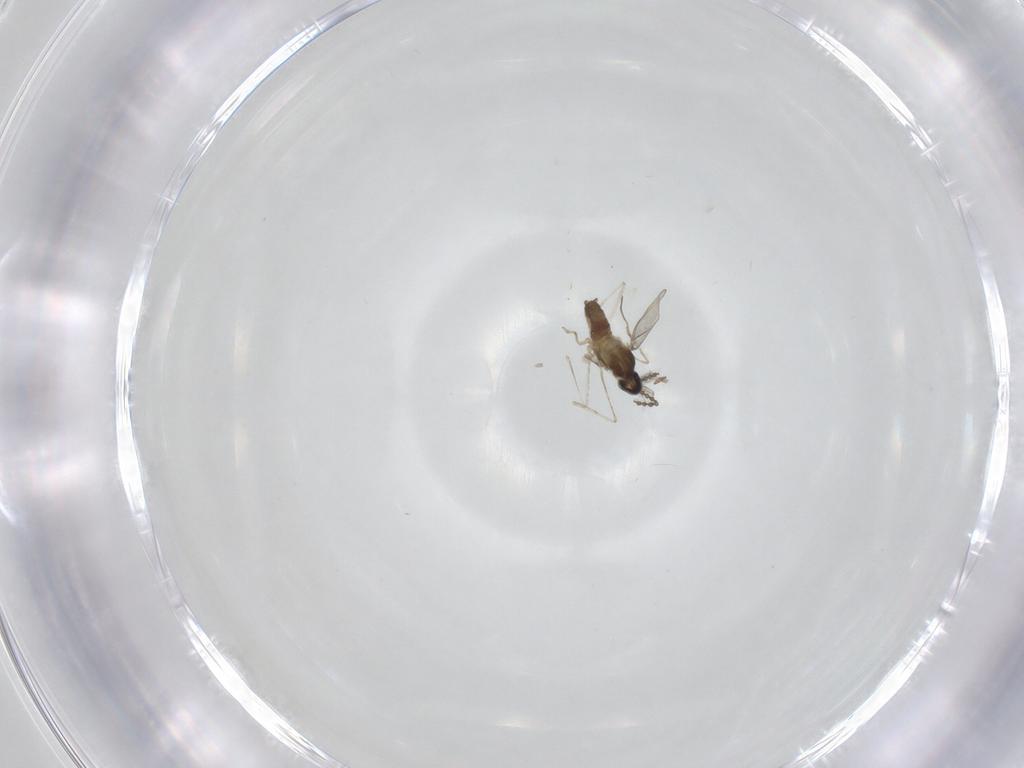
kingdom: Animalia
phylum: Arthropoda
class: Insecta
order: Diptera
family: Cecidomyiidae
